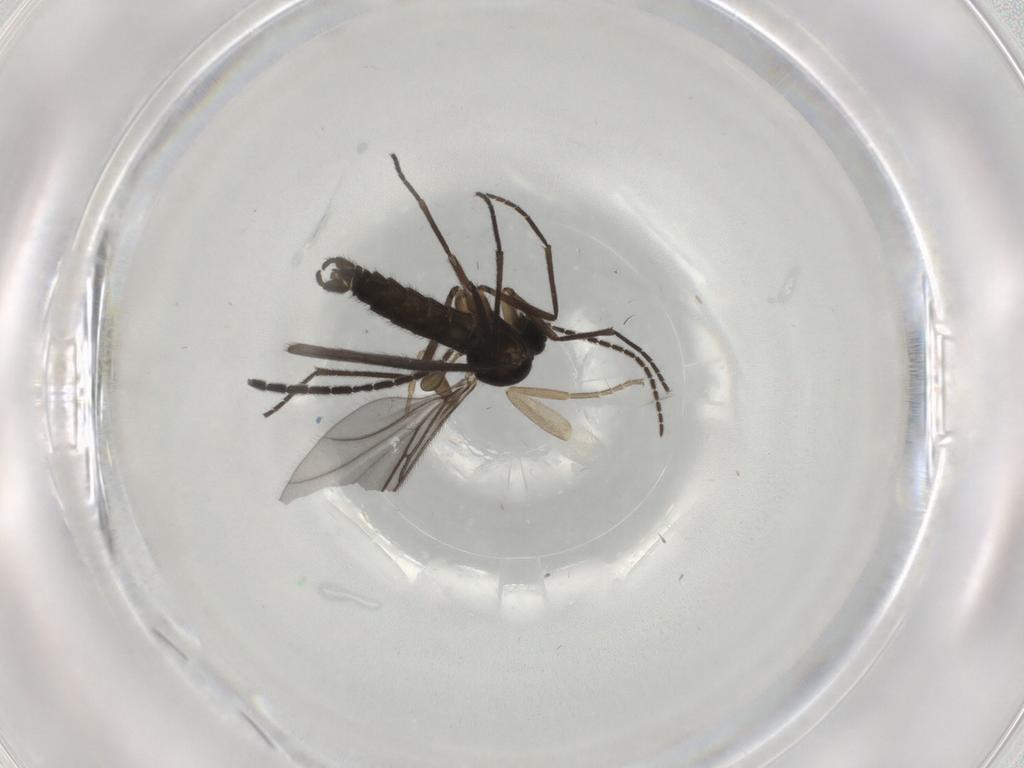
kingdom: Animalia
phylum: Arthropoda
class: Insecta
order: Diptera
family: Sciaridae
